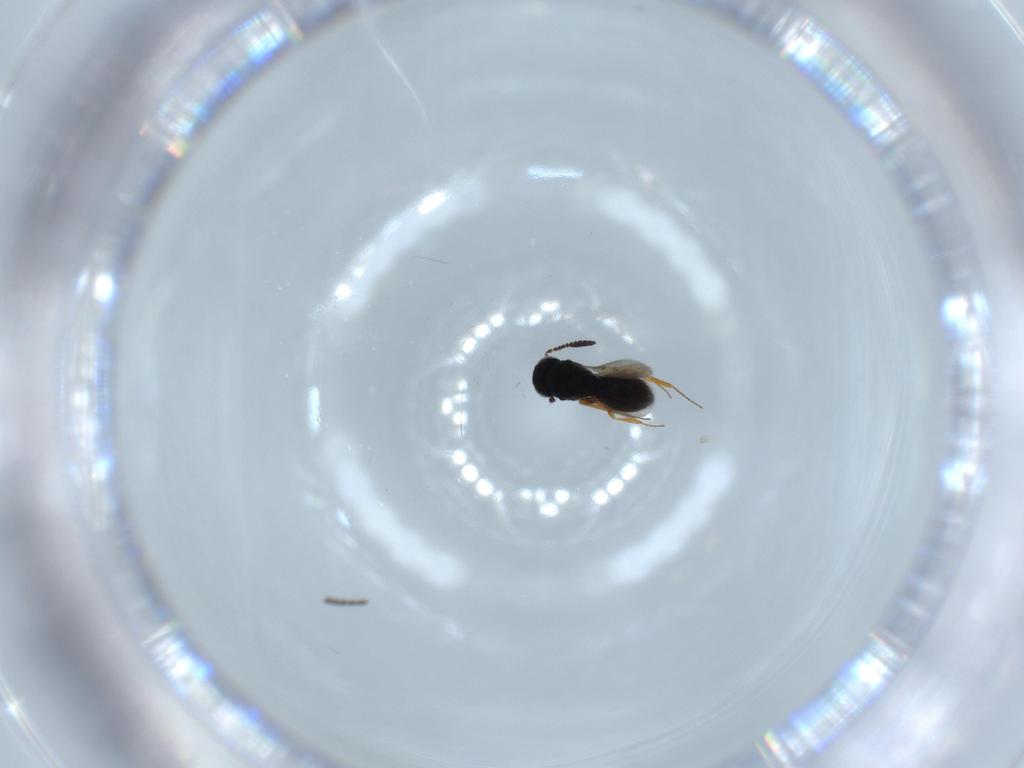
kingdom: Animalia
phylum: Arthropoda
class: Insecta
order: Hymenoptera
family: Scelionidae
